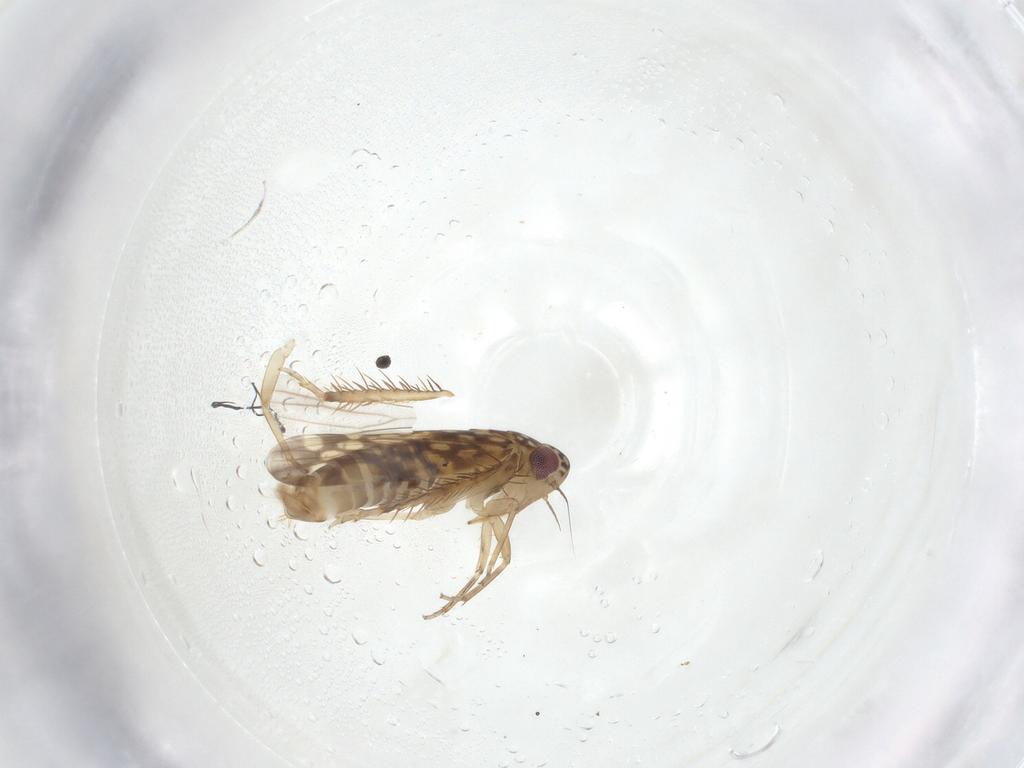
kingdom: Animalia
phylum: Arthropoda
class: Insecta
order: Hemiptera
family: Cicadellidae
